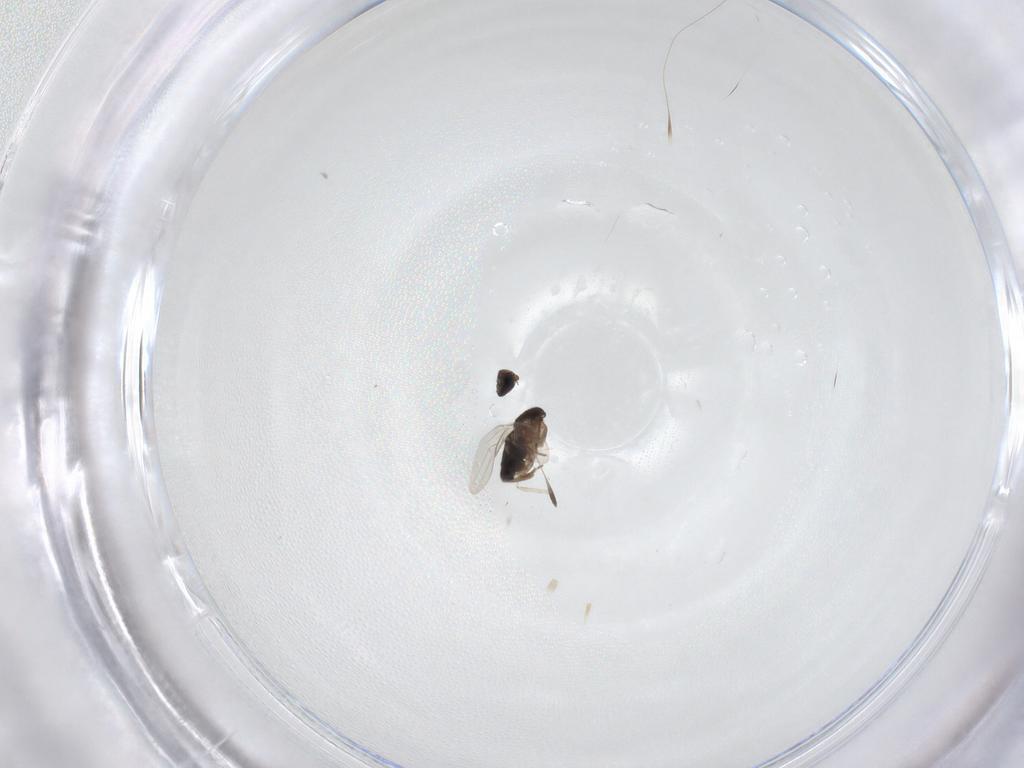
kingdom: Animalia
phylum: Arthropoda
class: Insecta
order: Diptera
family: Phoridae
